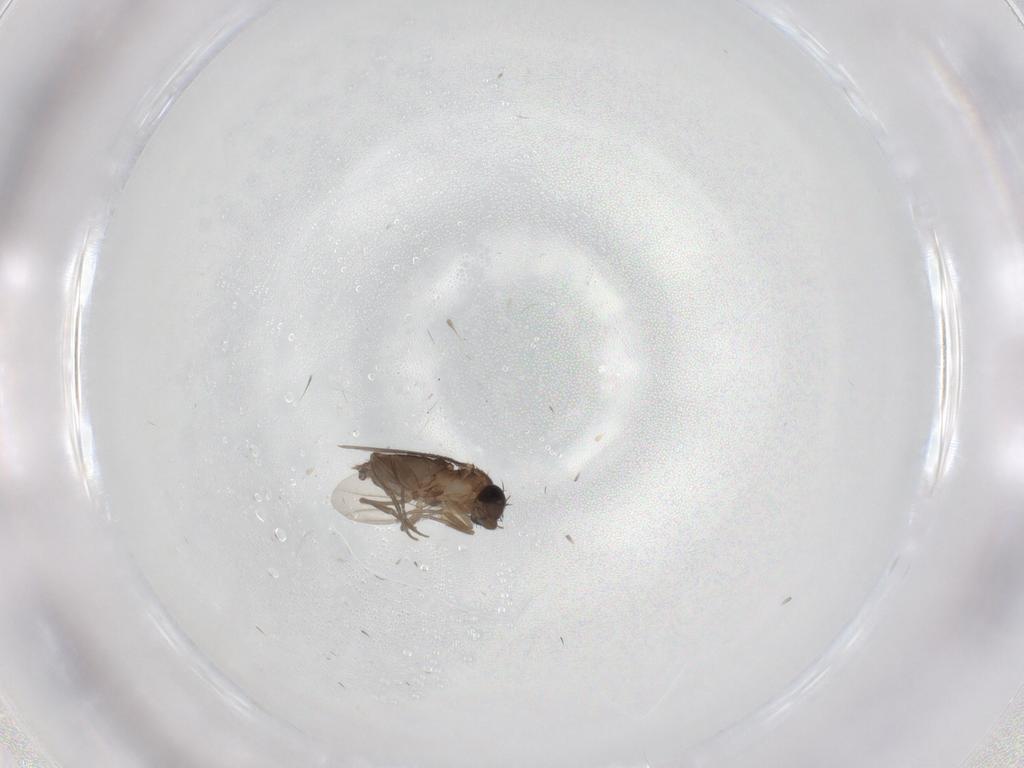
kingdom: Animalia
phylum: Arthropoda
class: Insecta
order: Diptera
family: Phoridae
